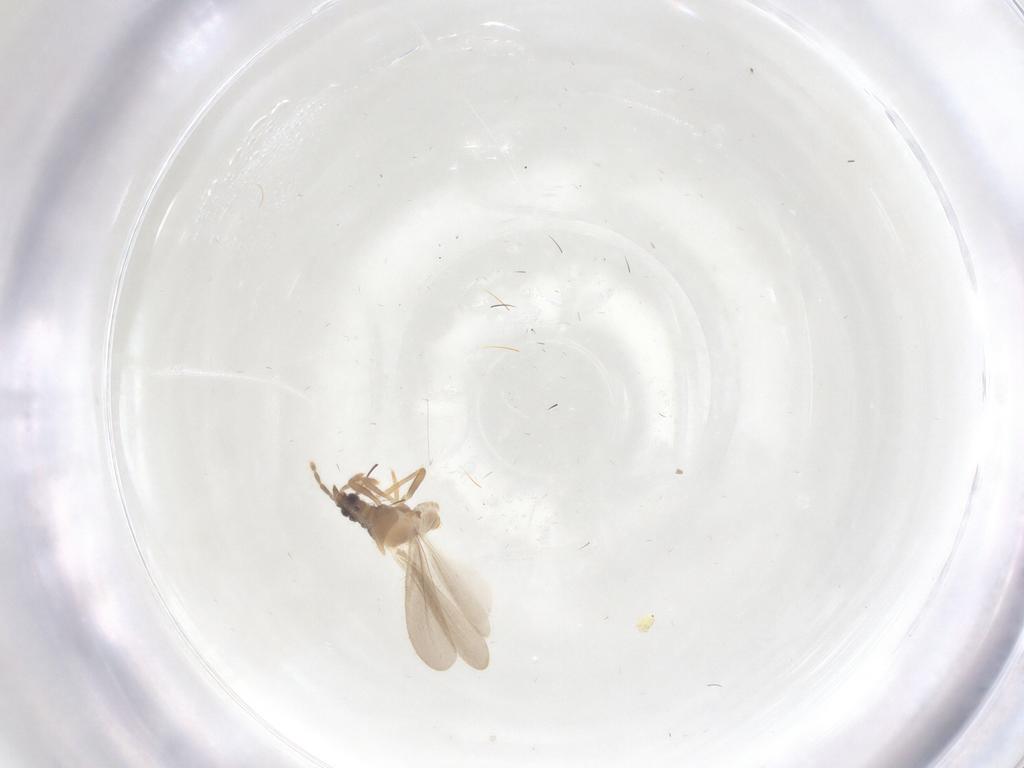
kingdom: Animalia
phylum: Arthropoda
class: Insecta
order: Hemiptera
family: Enicocephalidae
